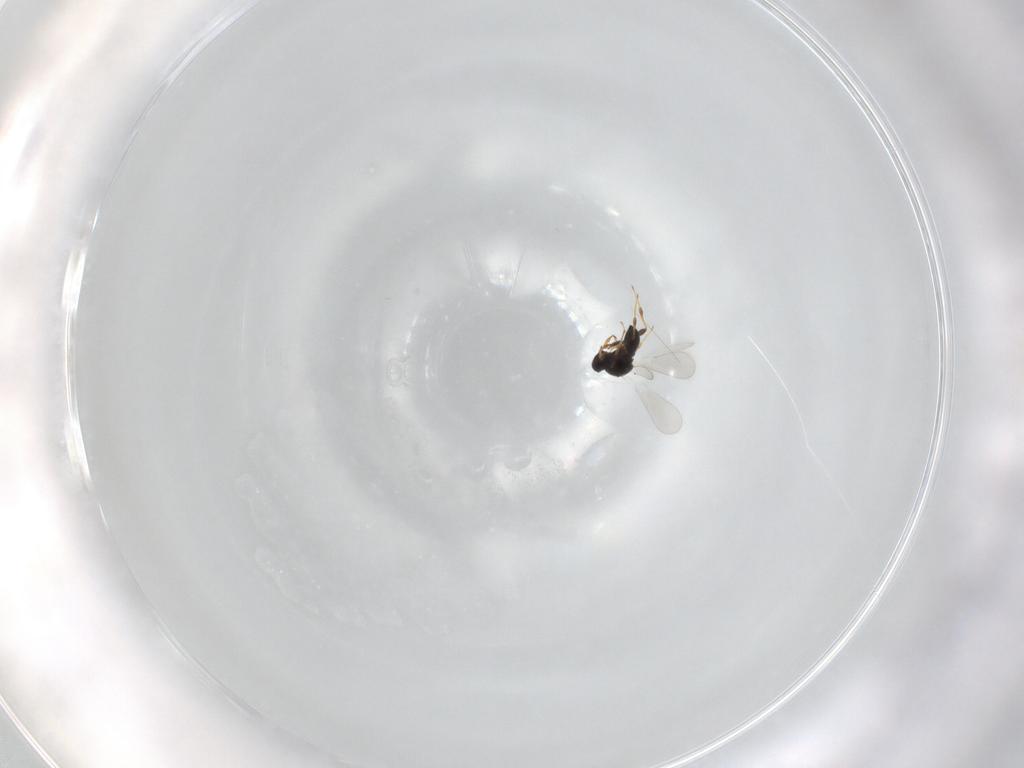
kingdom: Animalia
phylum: Arthropoda
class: Insecta
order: Hymenoptera
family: Platygastridae
